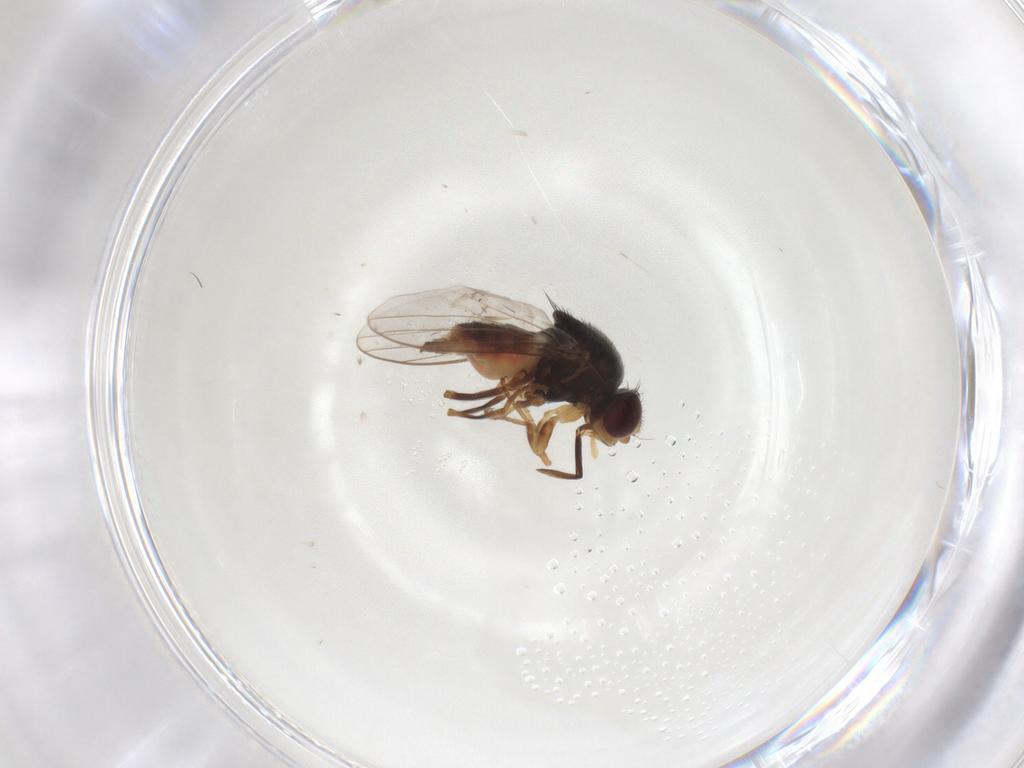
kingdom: Animalia
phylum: Arthropoda
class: Insecta
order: Diptera
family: Chloropidae
